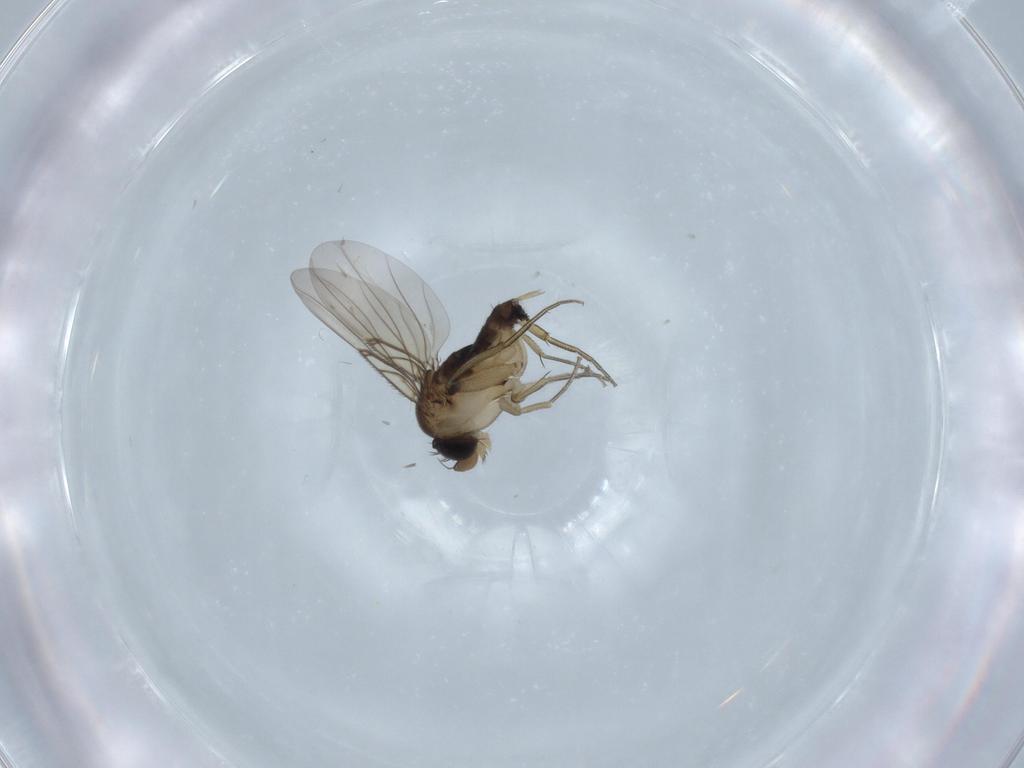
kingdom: Animalia
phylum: Arthropoda
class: Insecta
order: Diptera
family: Phoridae
